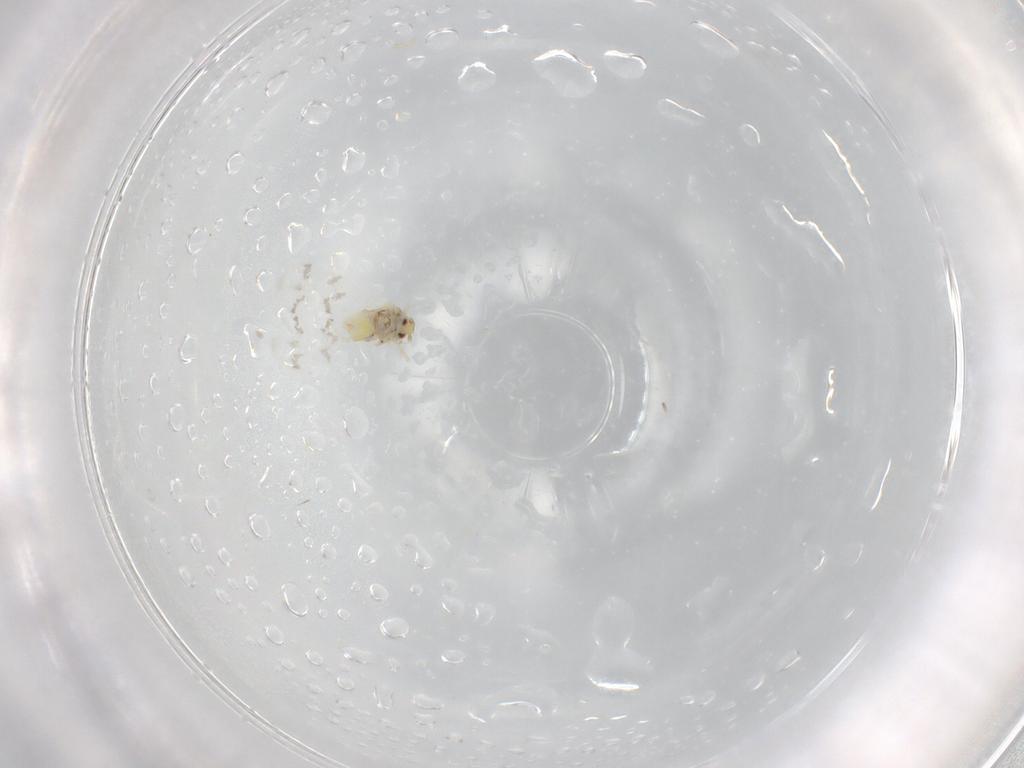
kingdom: Animalia
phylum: Arthropoda
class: Insecta
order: Hemiptera
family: Aleyrodidae
